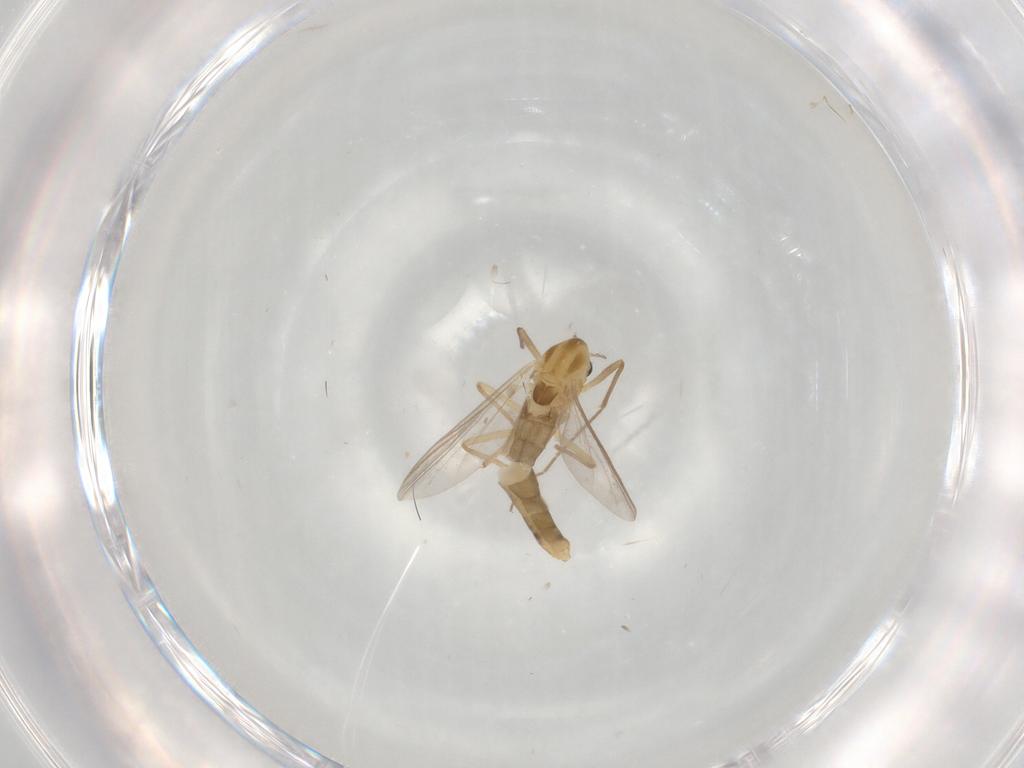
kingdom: Animalia
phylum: Arthropoda
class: Insecta
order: Diptera
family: Chironomidae
